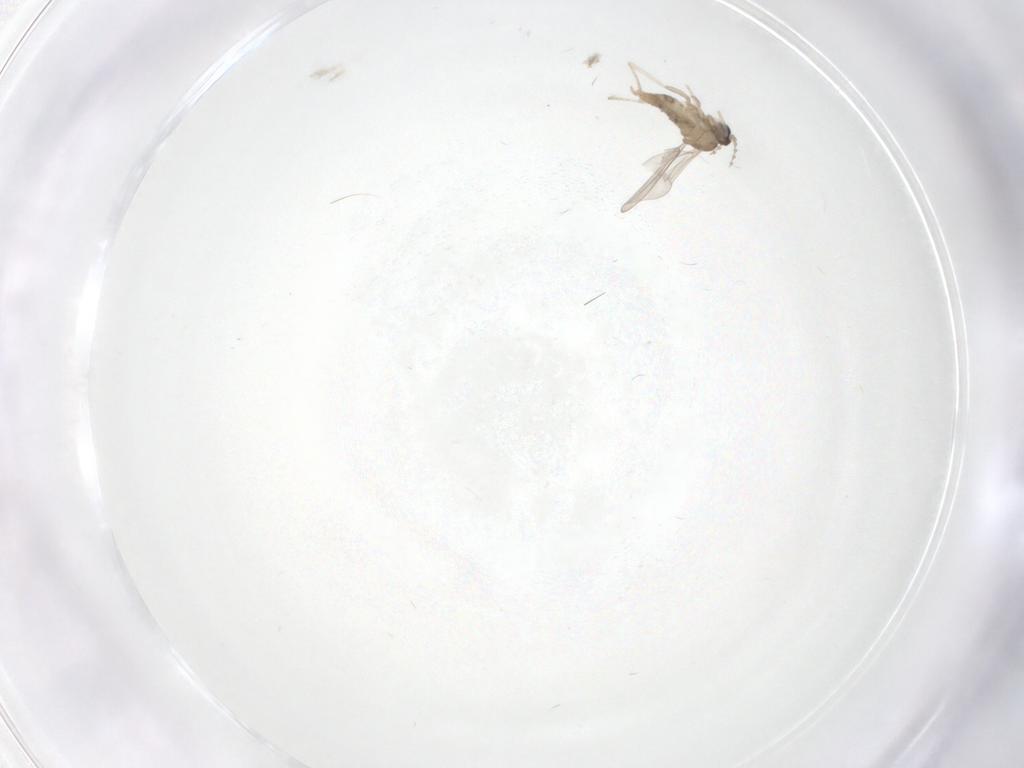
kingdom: Animalia
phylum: Arthropoda
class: Insecta
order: Diptera
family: Cecidomyiidae
